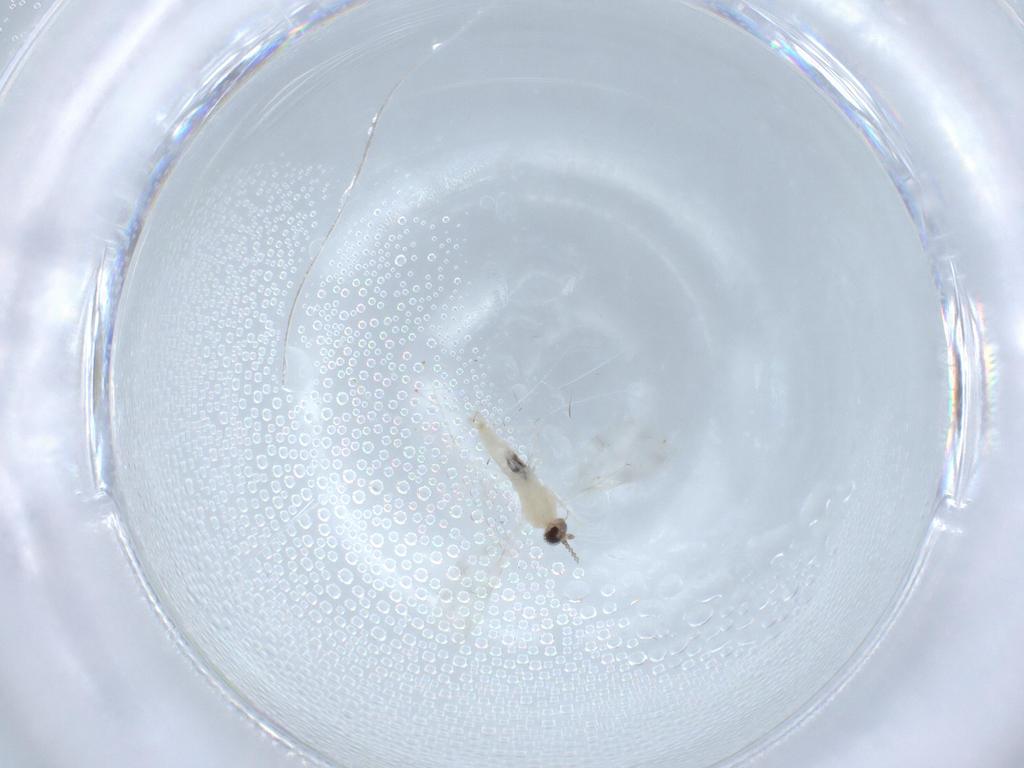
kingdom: Animalia
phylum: Arthropoda
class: Insecta
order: Diptera
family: Cecidomyiidae
